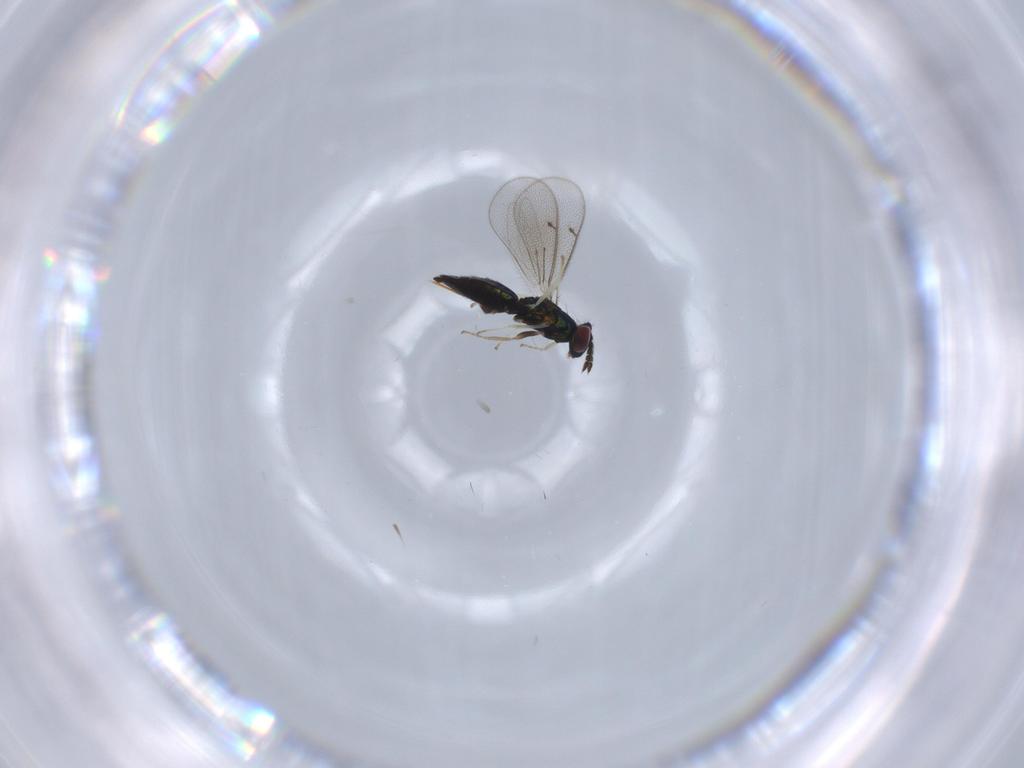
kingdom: Animalia
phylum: Arthropoda
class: Insecta
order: Hymenoptera
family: Eulophidae
